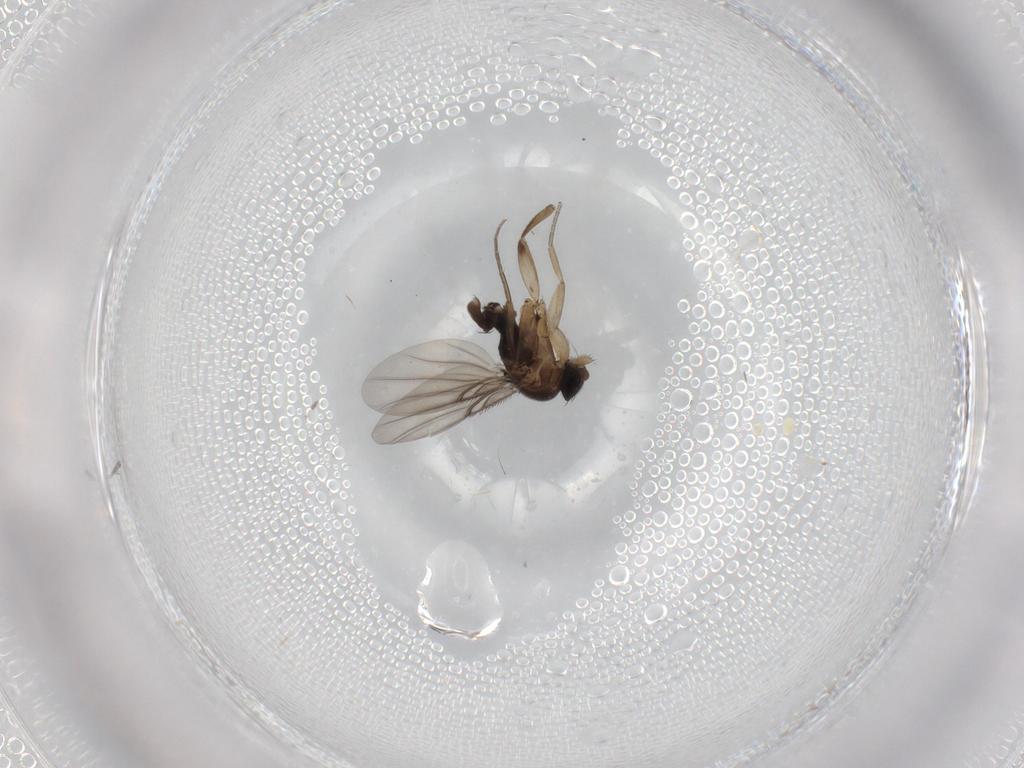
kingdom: Animalia
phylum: Arthropoda
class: Insecta
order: Diptera
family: Phoridae
